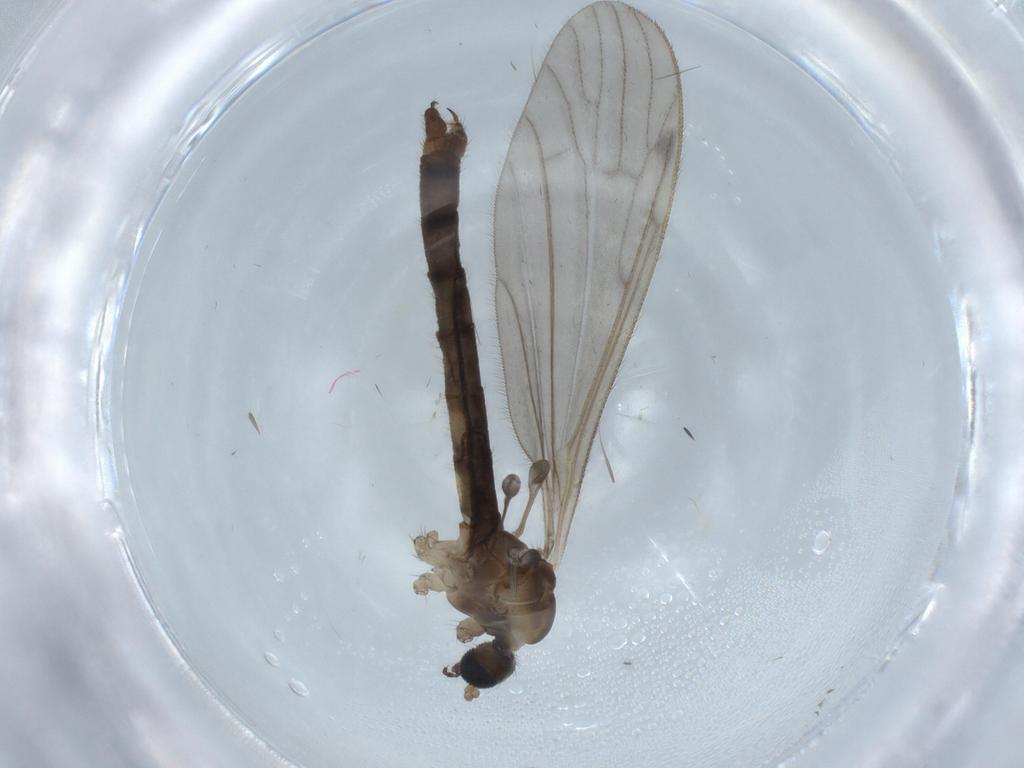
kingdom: Animalia
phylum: Arthropoda
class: Insecta
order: Diptera
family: Phoridae
